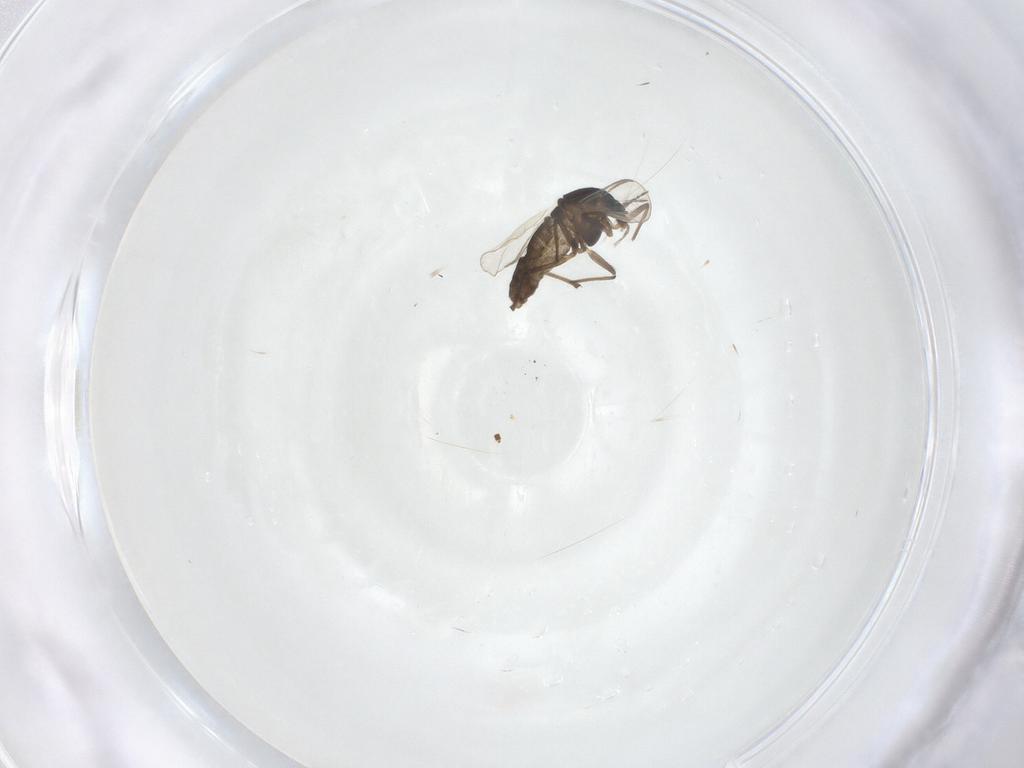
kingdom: Animalia
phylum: Arthropoda
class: Insecta
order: Diptera
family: Chironomidae
